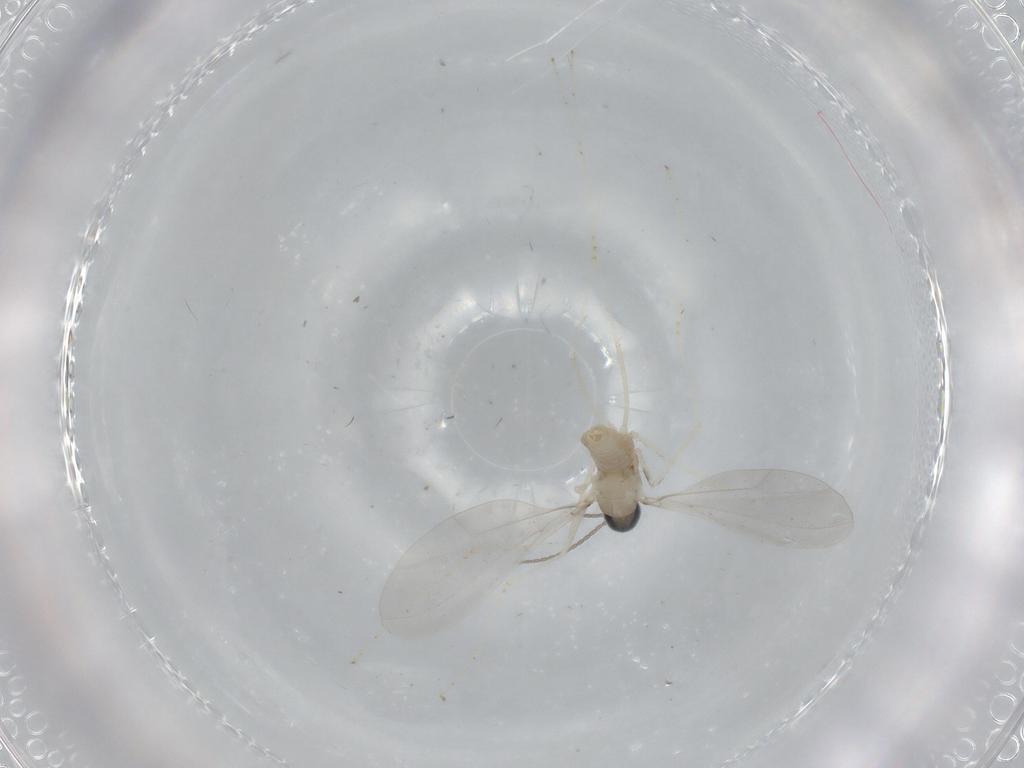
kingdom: Animalia
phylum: Arthropoda
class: Insecta
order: Diptera
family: Cecidomyiidae
